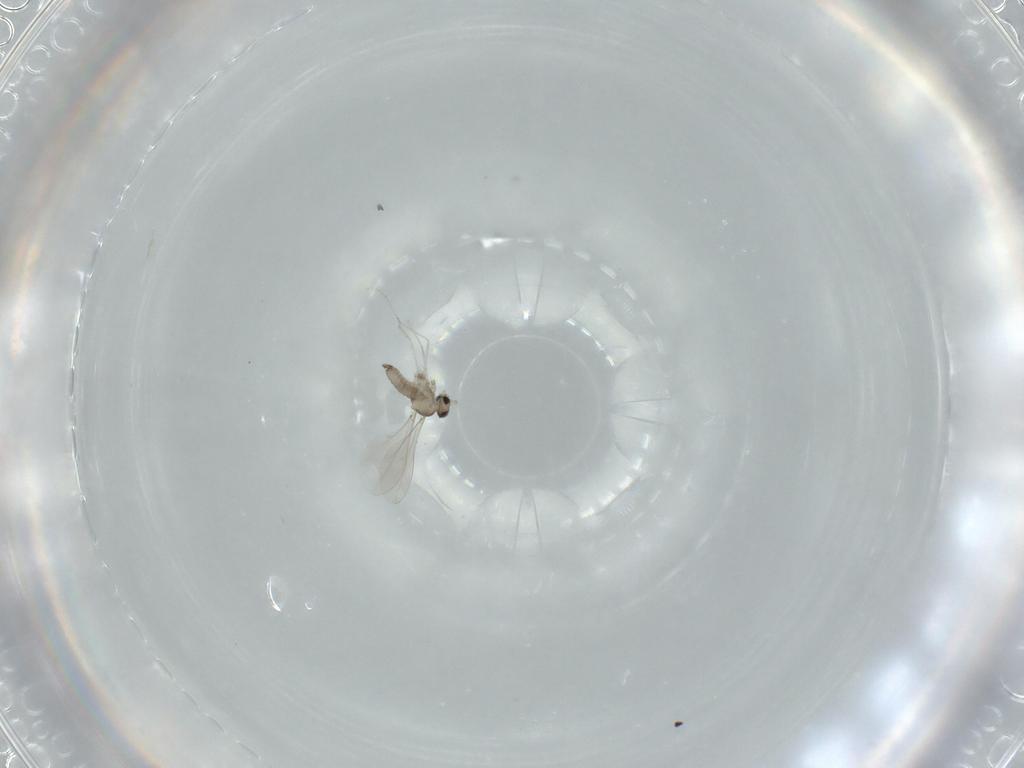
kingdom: Animalia
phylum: Arthropoda
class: Insecta
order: Diptera
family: Cecidomyiidae
